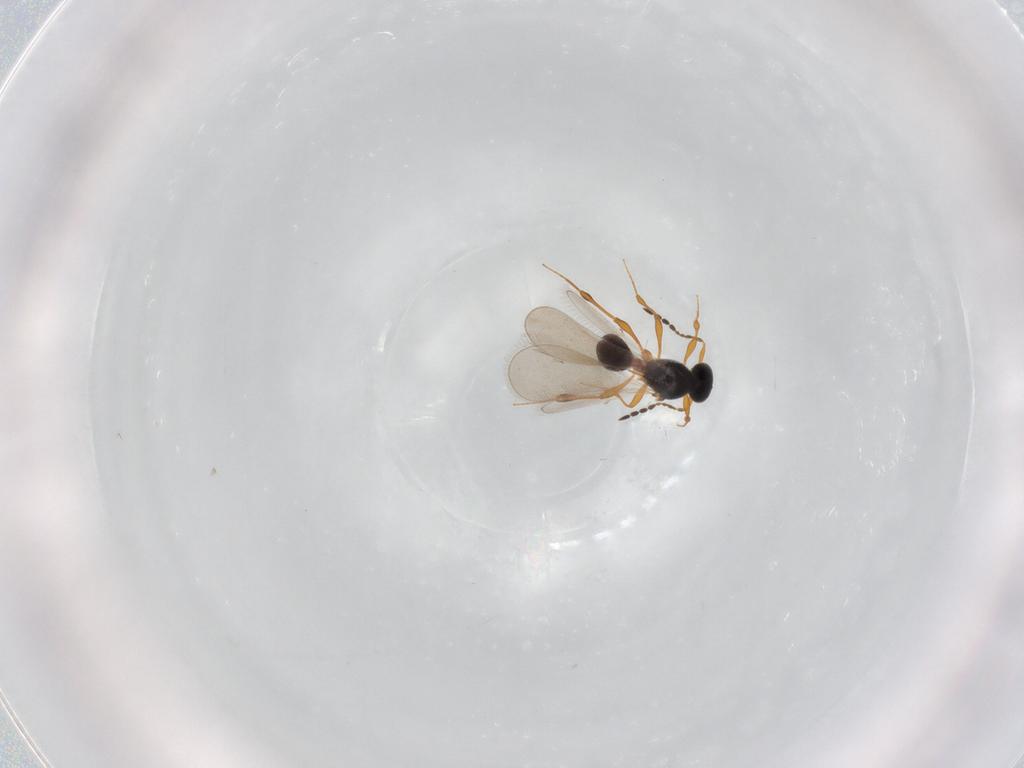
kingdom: Animalia
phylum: Arthropoda
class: Insecta
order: Hymenoptera
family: Platygastridae
